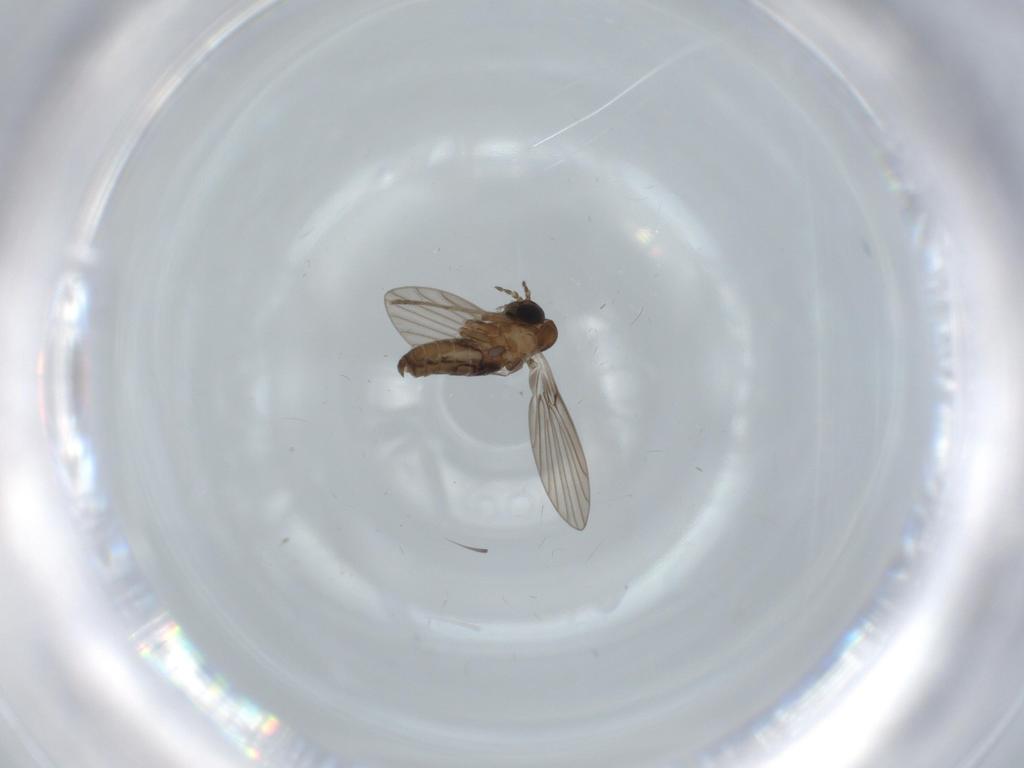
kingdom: Animalia
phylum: Arthropoda
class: Insecta
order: Diptera
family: Psychodidae
